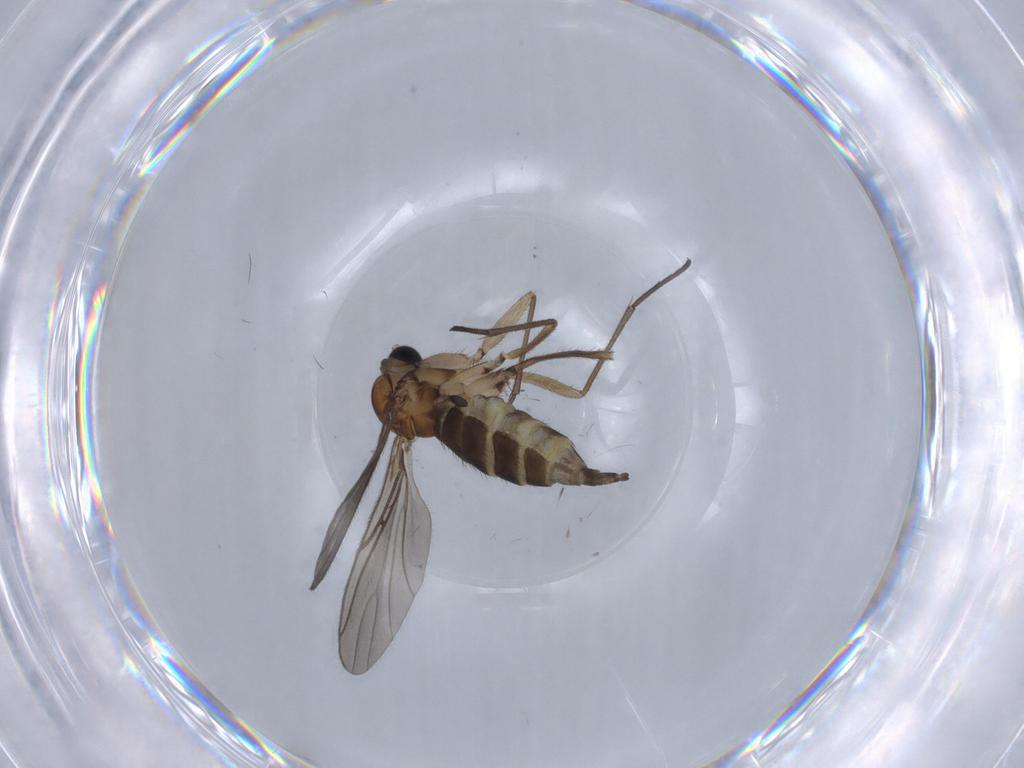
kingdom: Animalia
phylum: Arthropoda
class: Insecta
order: Diptera
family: Sciaridae
